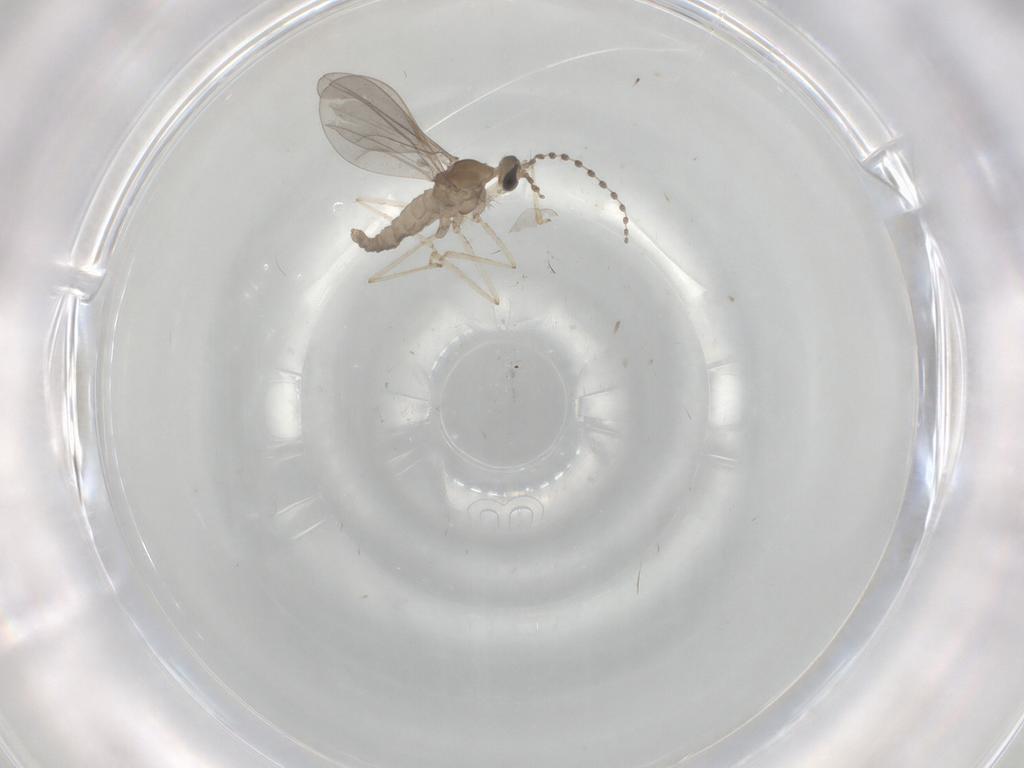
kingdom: Animalia
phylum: Arthropoda
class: Insecta
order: Diptera
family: Cecidomyiidae
